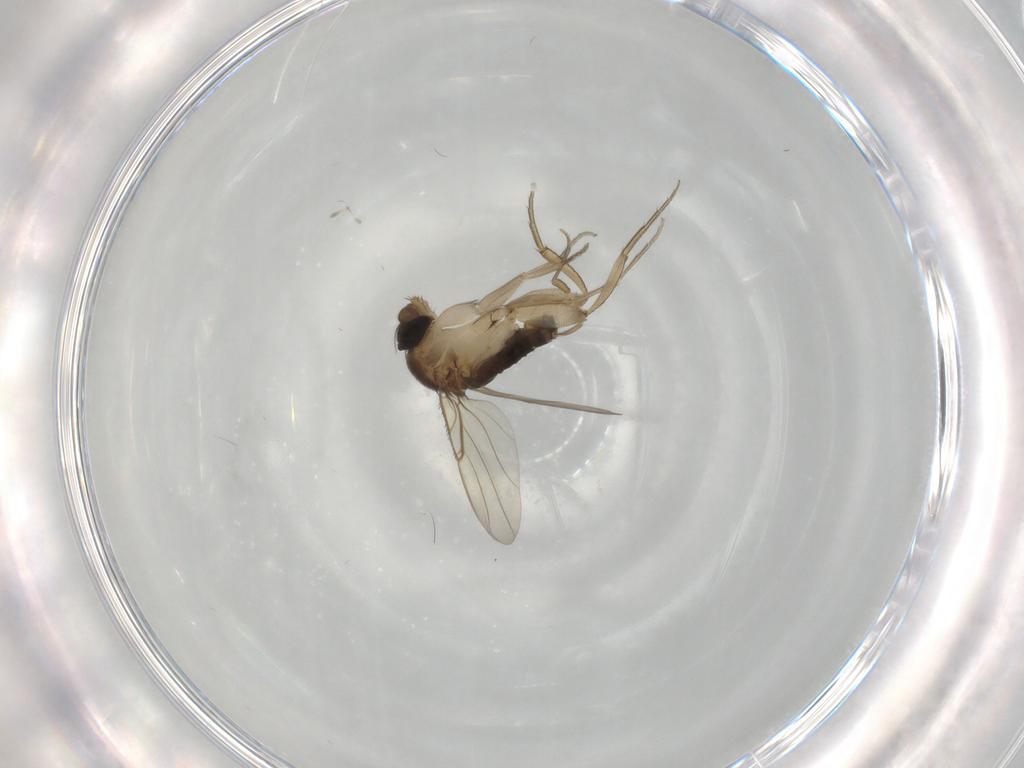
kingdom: Animalia
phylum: Arthropoda
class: Insecta
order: Diptera
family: Phoridae
